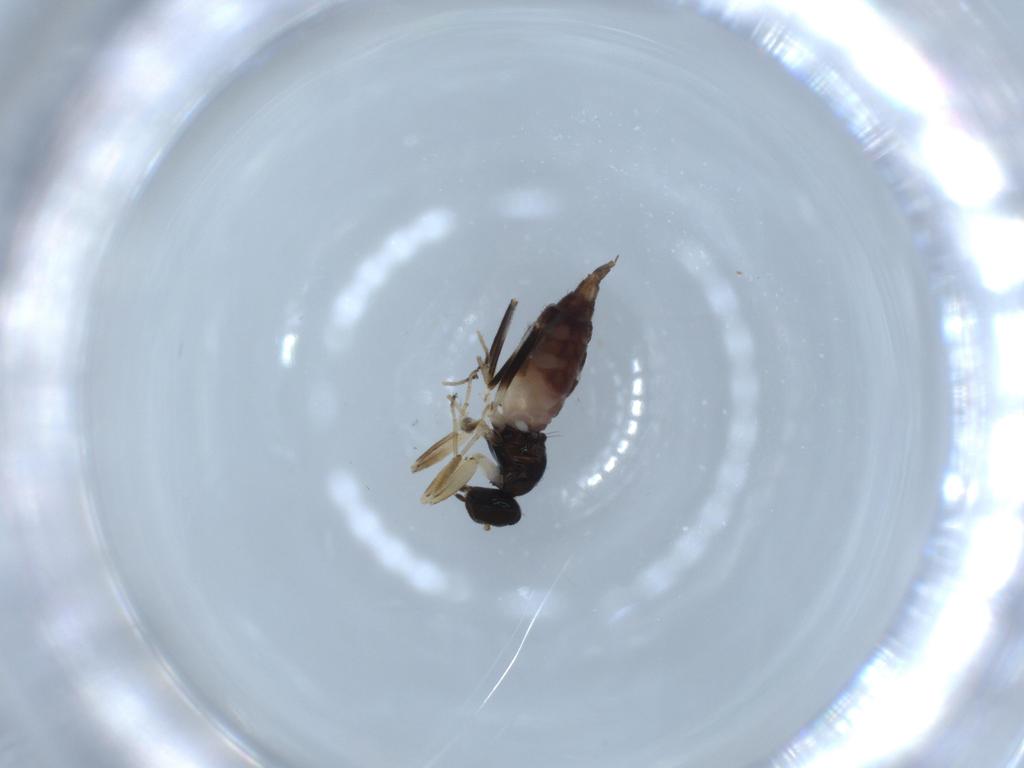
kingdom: Animalia
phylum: Arthropoda
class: Insecta
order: Diptera
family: Hybotidae
